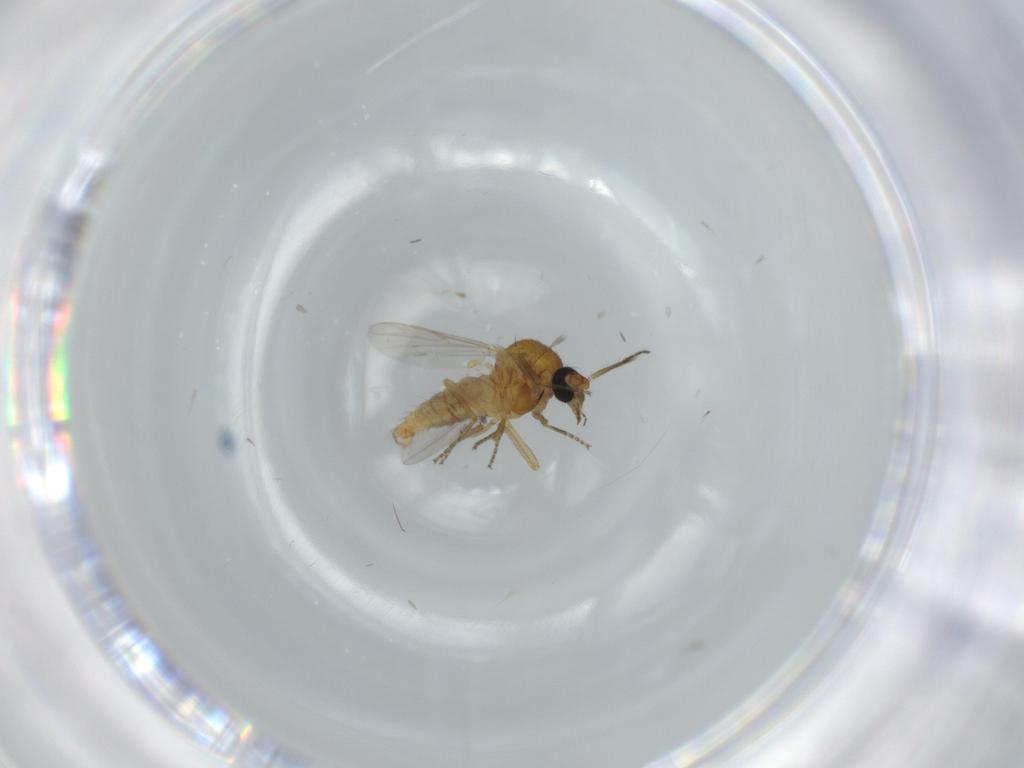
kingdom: Animalia
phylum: Arthropoda
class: Insecta
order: Diptera
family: Ceratopogonidae
